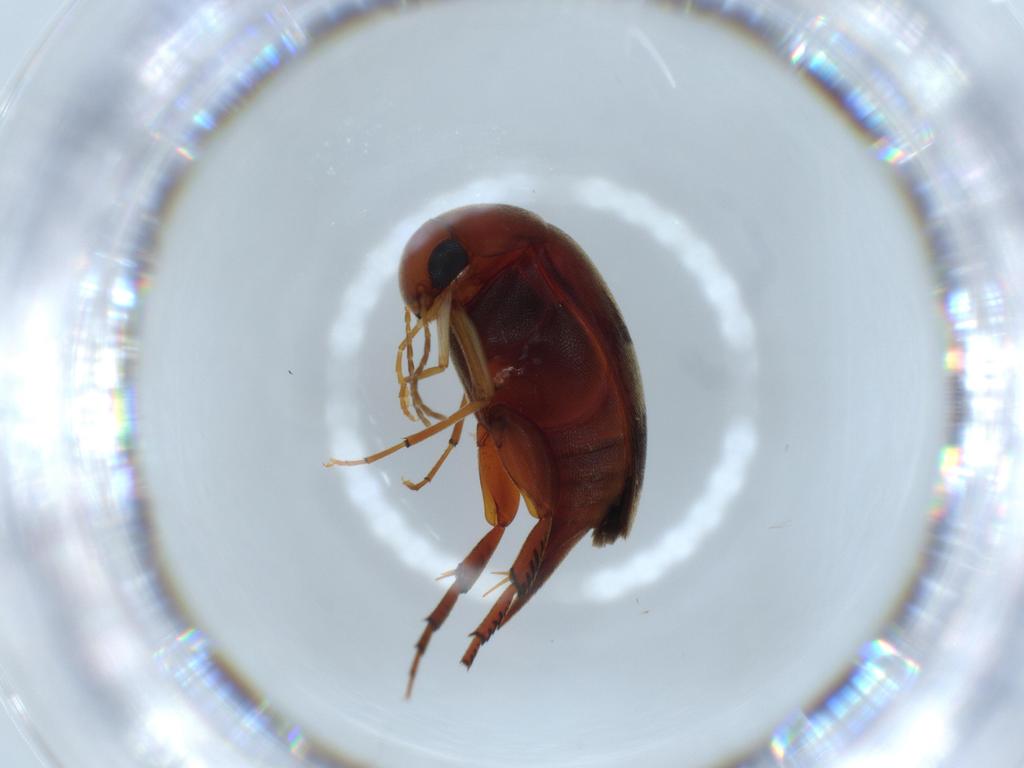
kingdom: Animalia
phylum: Arthropoda
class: Insecta
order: Coleoptera
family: Mordellidae
